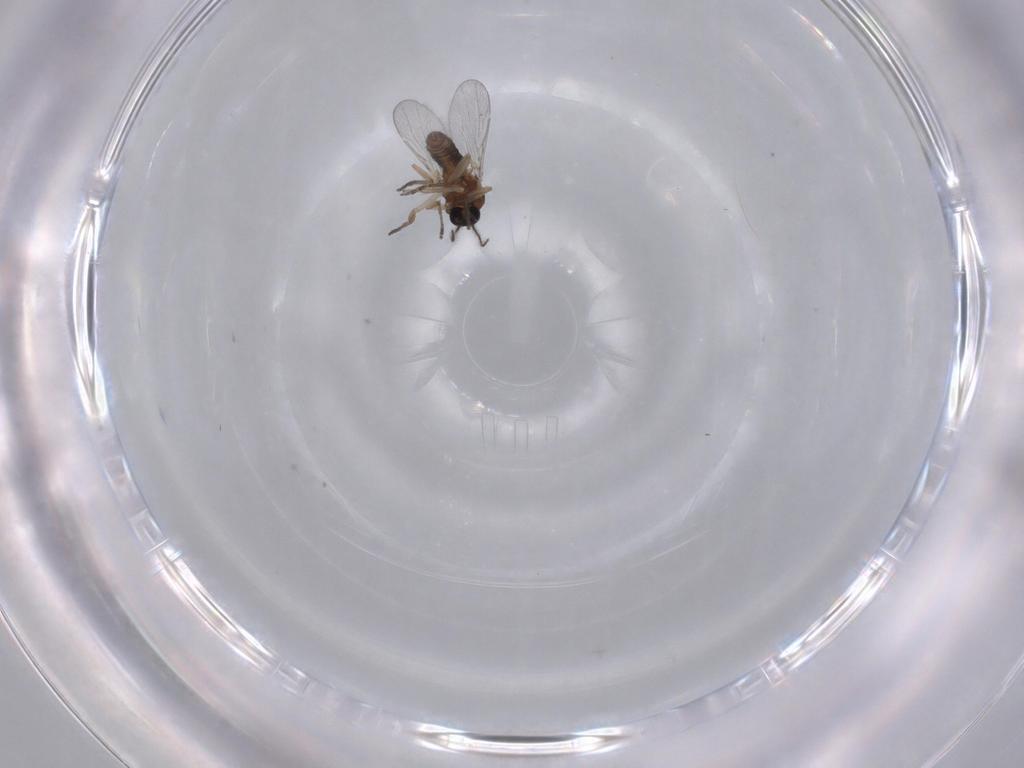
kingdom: Animalia
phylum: Arthropoda
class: Insecta
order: Diptera
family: Ceratopogonidae
